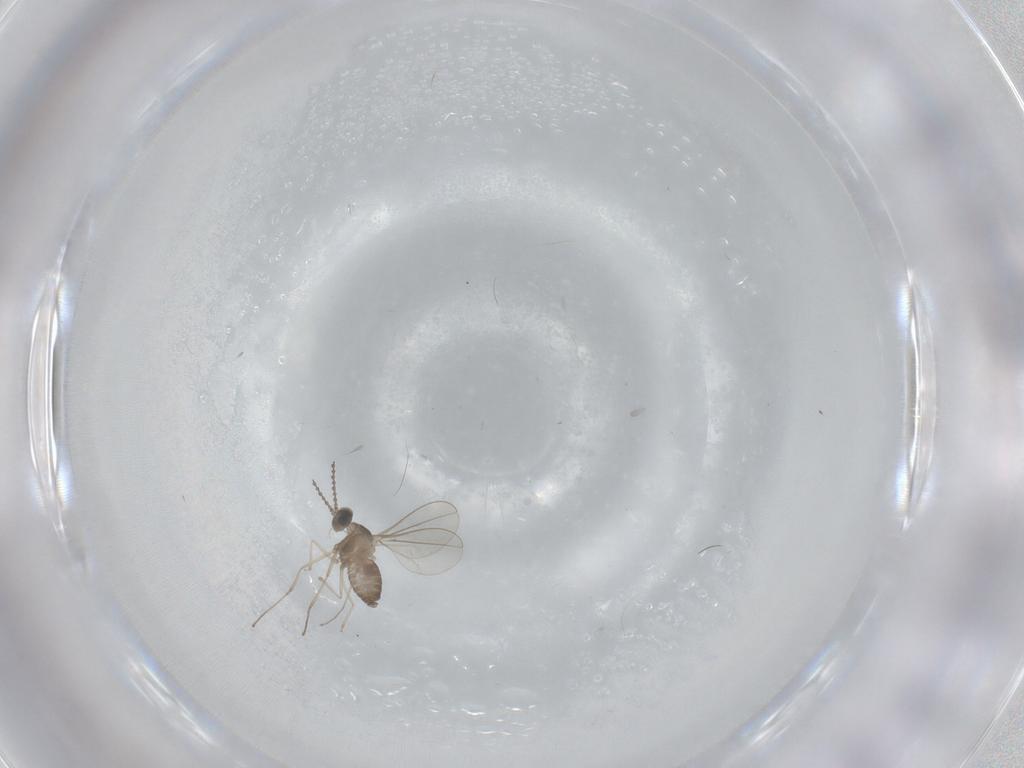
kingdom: Animalia
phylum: Arthropoda
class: Insecta
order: Diptera
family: Cecidomyiidae
